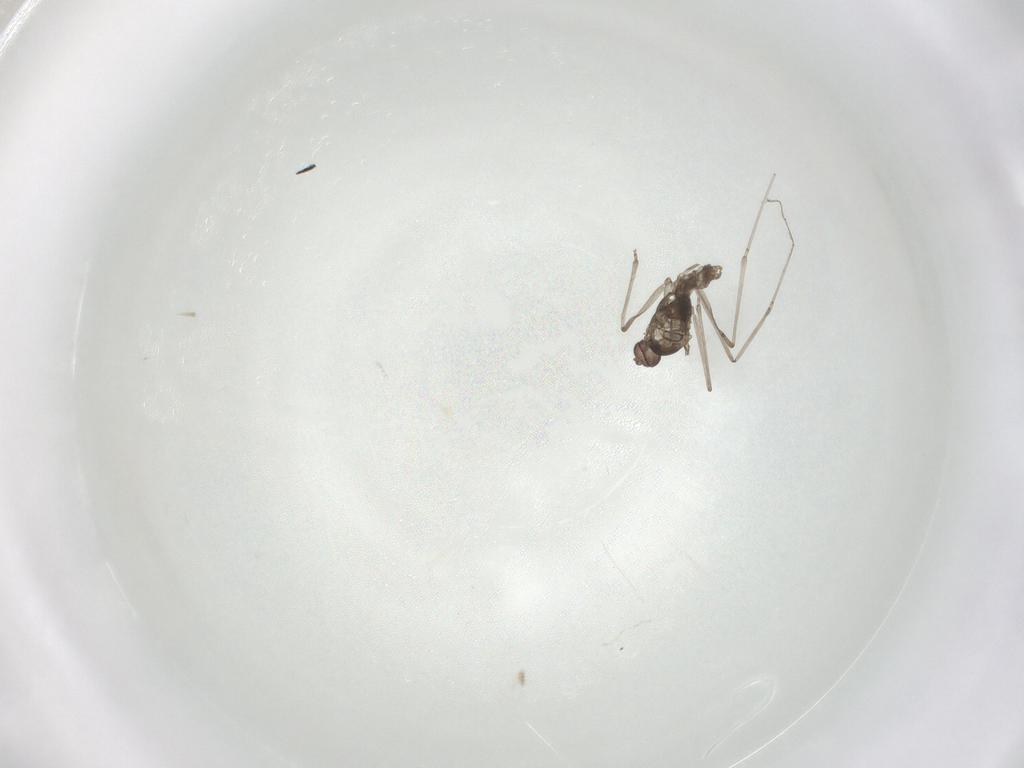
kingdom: Animalia
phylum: Arthropoda
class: Insecta
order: Diptera
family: Cecidomyiidae
